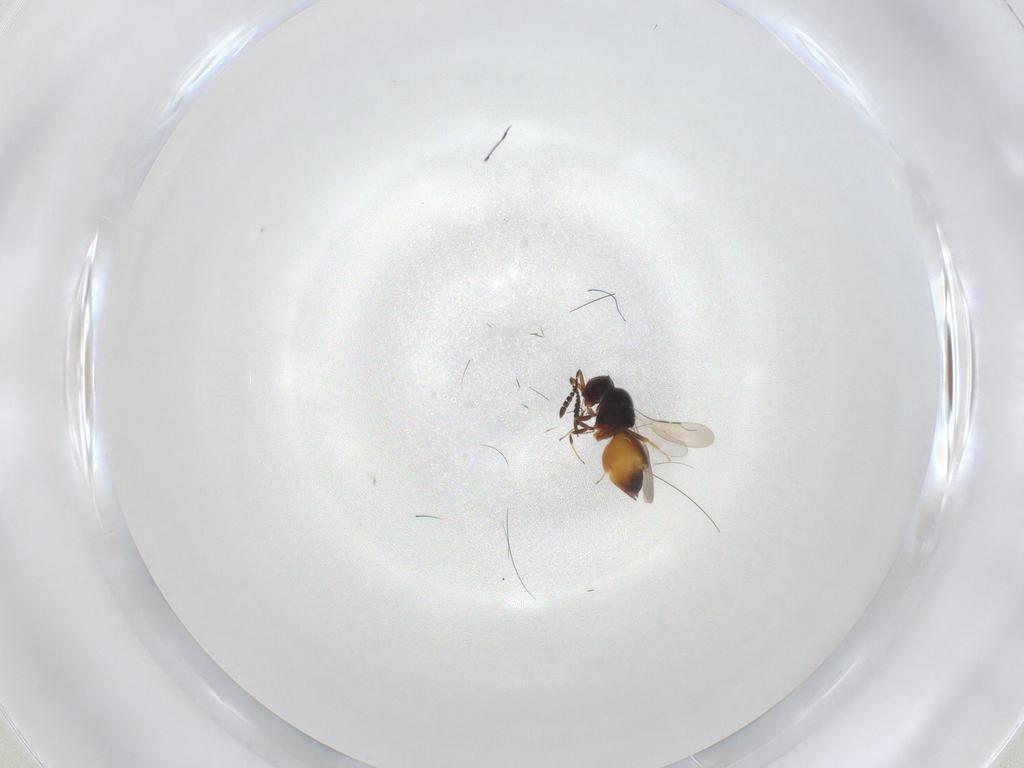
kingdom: Animalia
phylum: Arthropoda
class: Insecta
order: Hymenoptera
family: Ceraphronidae
